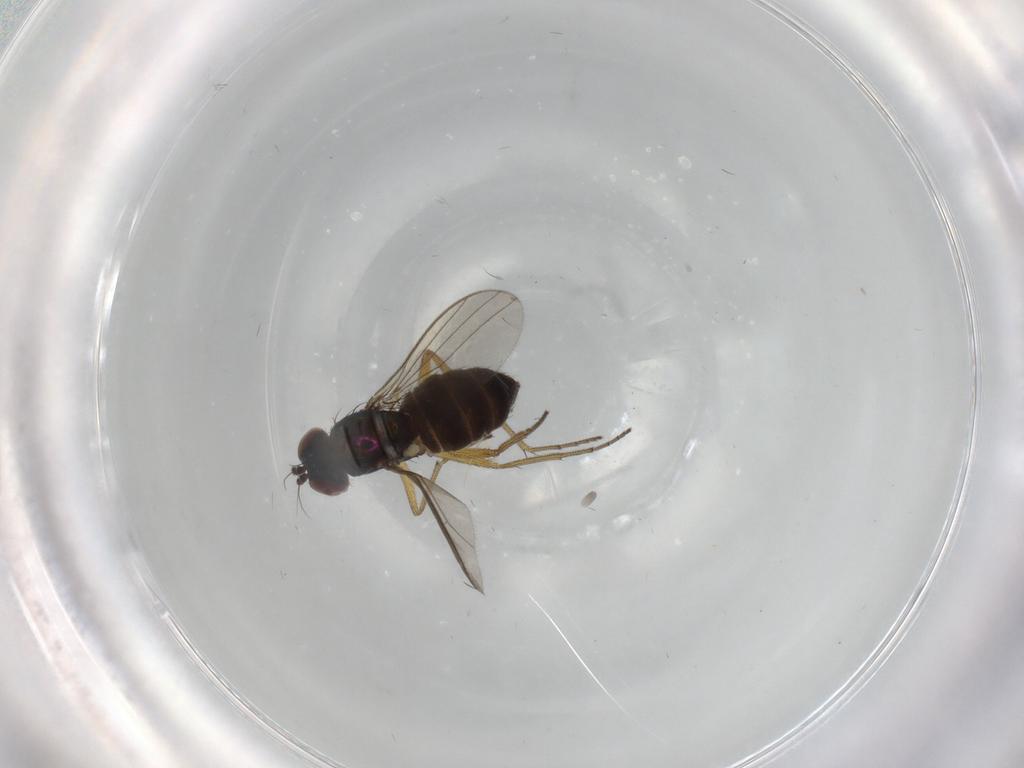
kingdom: Animalia
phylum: Arthropoda
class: Insecta
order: Diptera
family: Dolichopodidae
